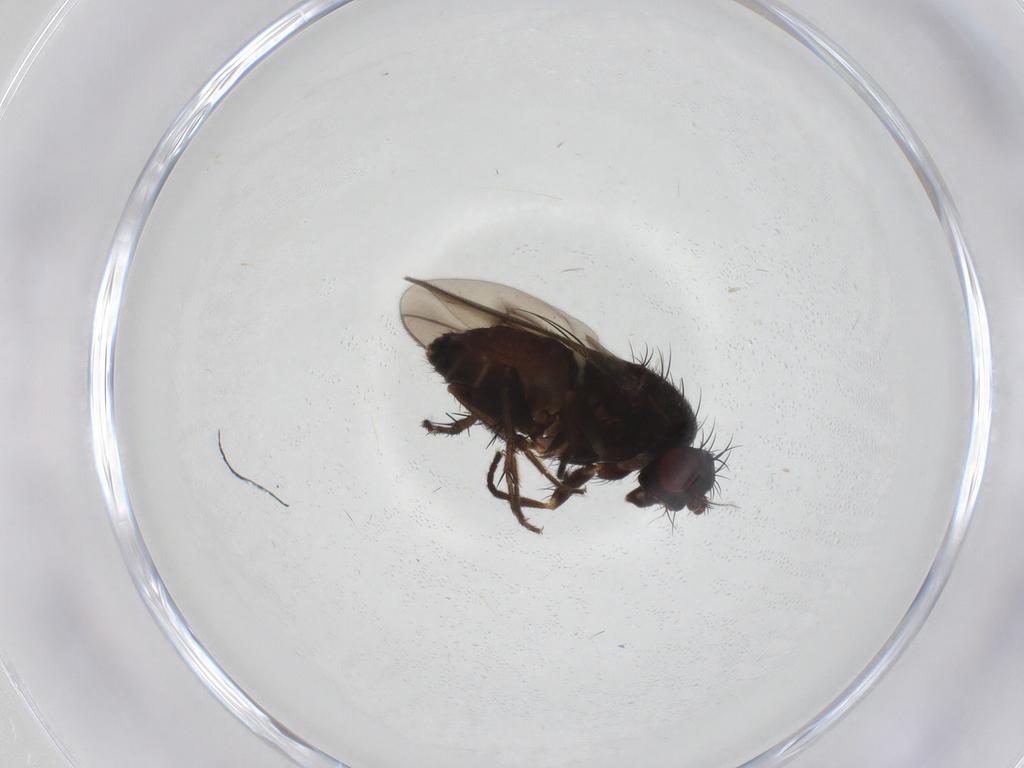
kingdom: Animalia
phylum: Arthropoda
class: Insecta
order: Diptera
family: Sphaeroceridae
